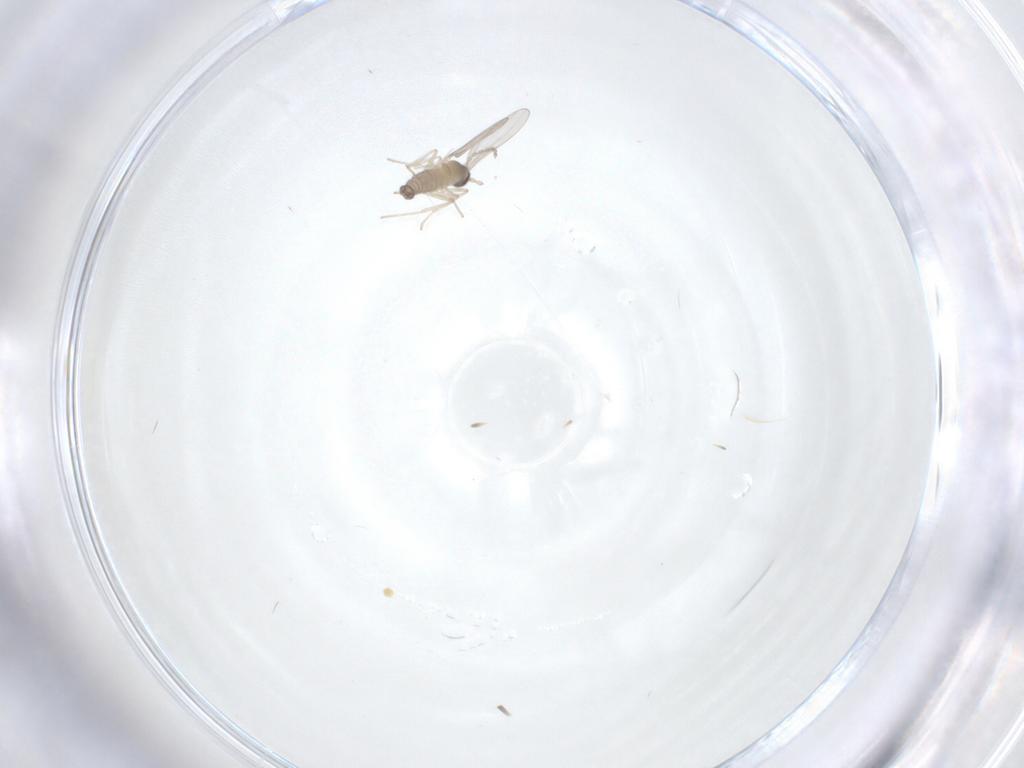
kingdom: Animalia
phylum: Arthropoda
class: Insecta
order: Diptera
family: Cecidomyiidae
